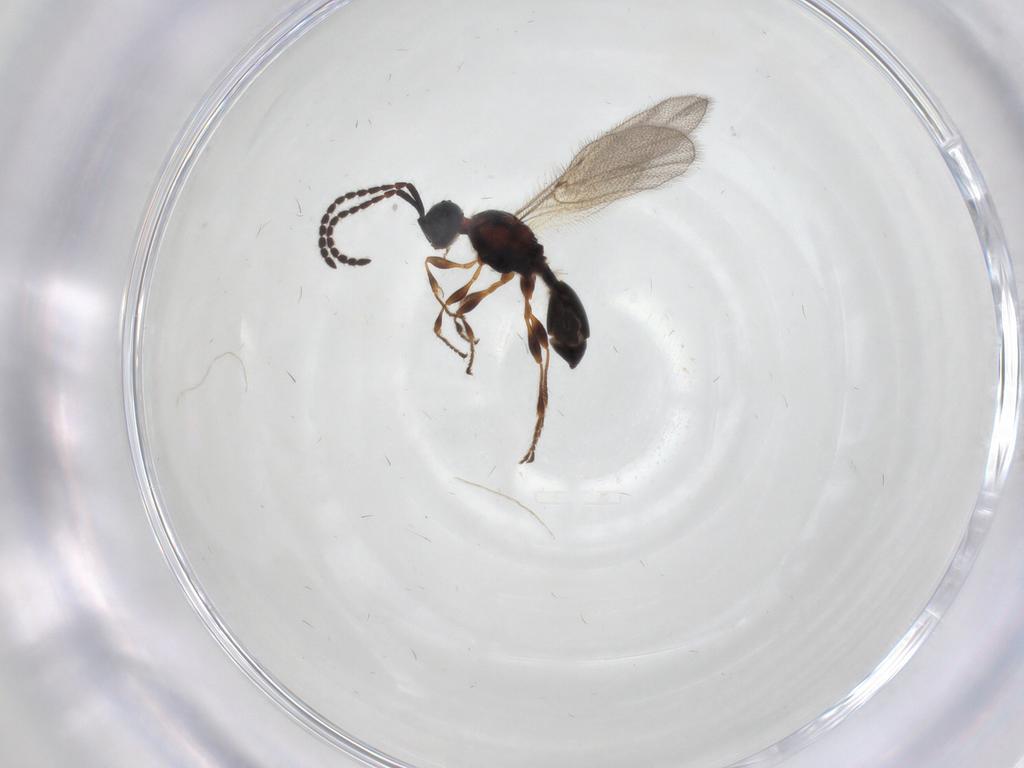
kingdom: Animalia
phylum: Arthropoda
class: Insecta
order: Hymenoptera
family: Diapriidae
